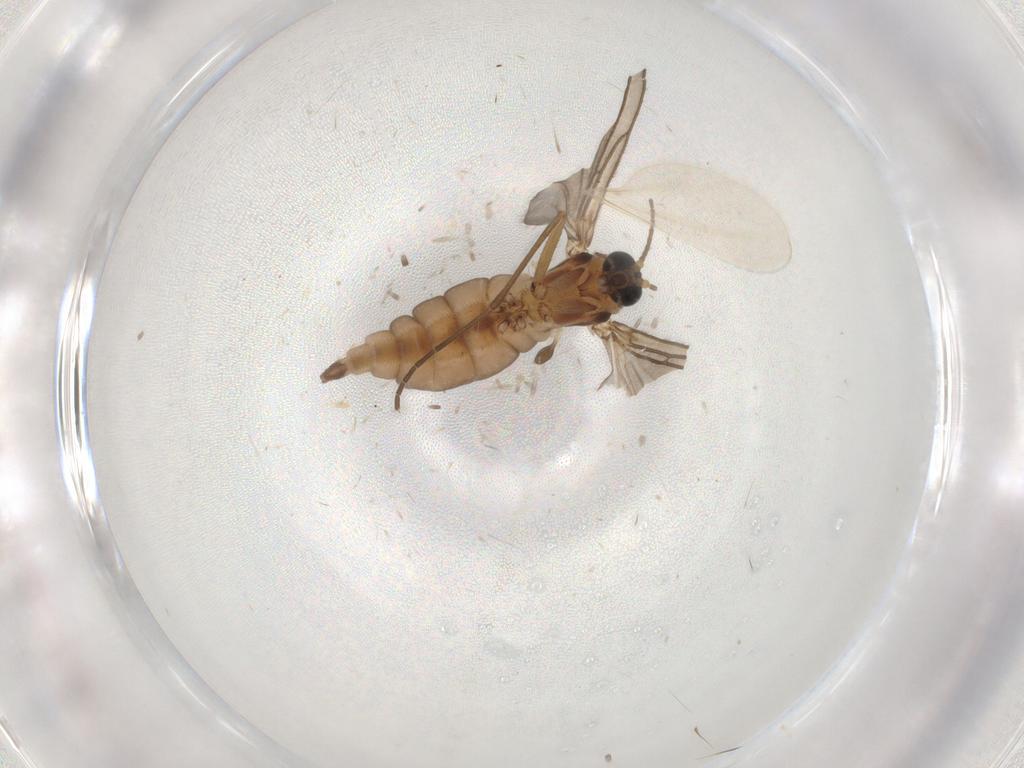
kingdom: Animalia
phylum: Arthropoda
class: Insecta
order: Diptera
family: Sciaridae
